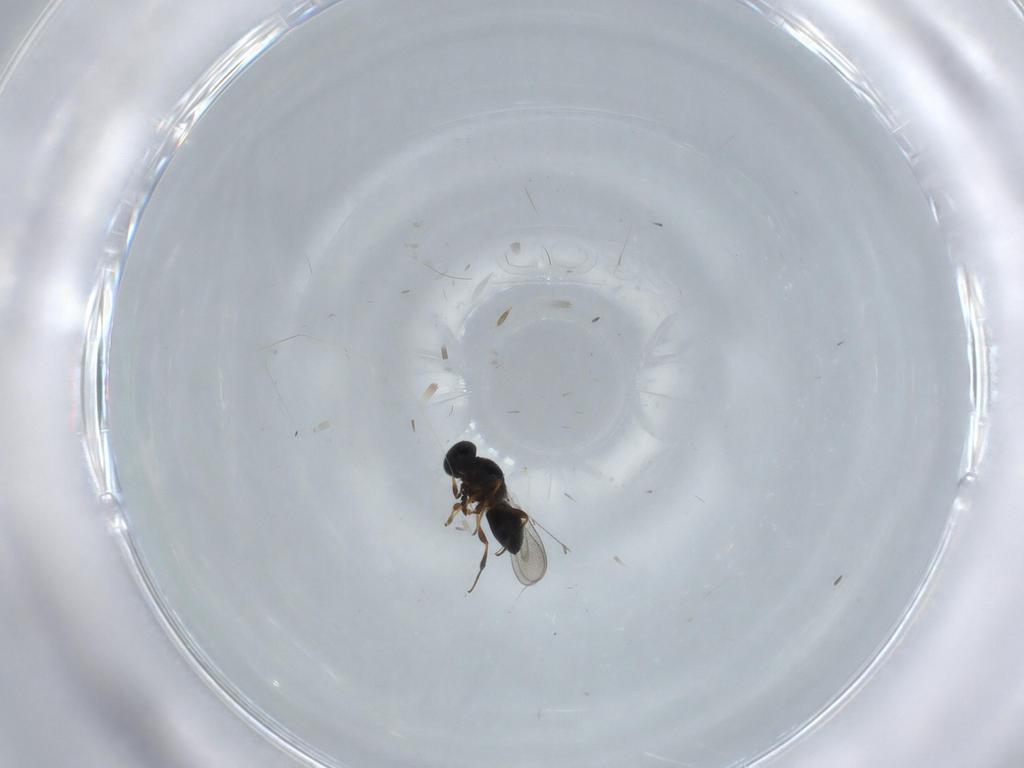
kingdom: Animalia
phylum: Arthropoda
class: Insecta
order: Hymenoptera
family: Platygastridae
